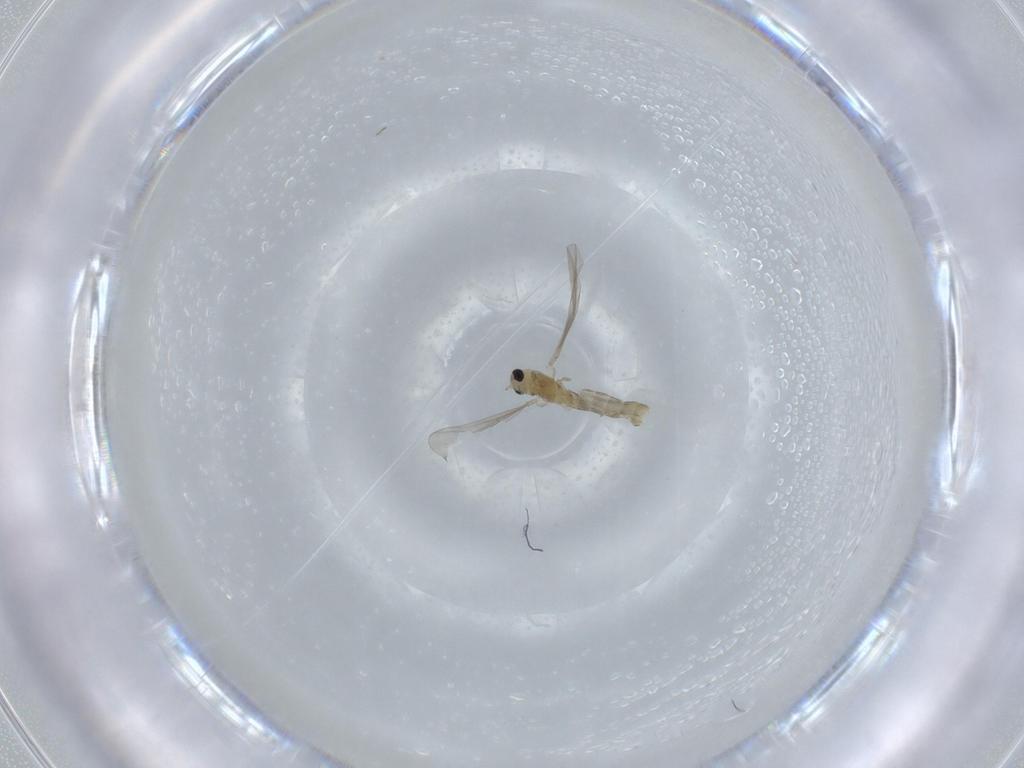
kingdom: Animalia
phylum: Arthropoda
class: Insecta
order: Diptera
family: Chironomidae
